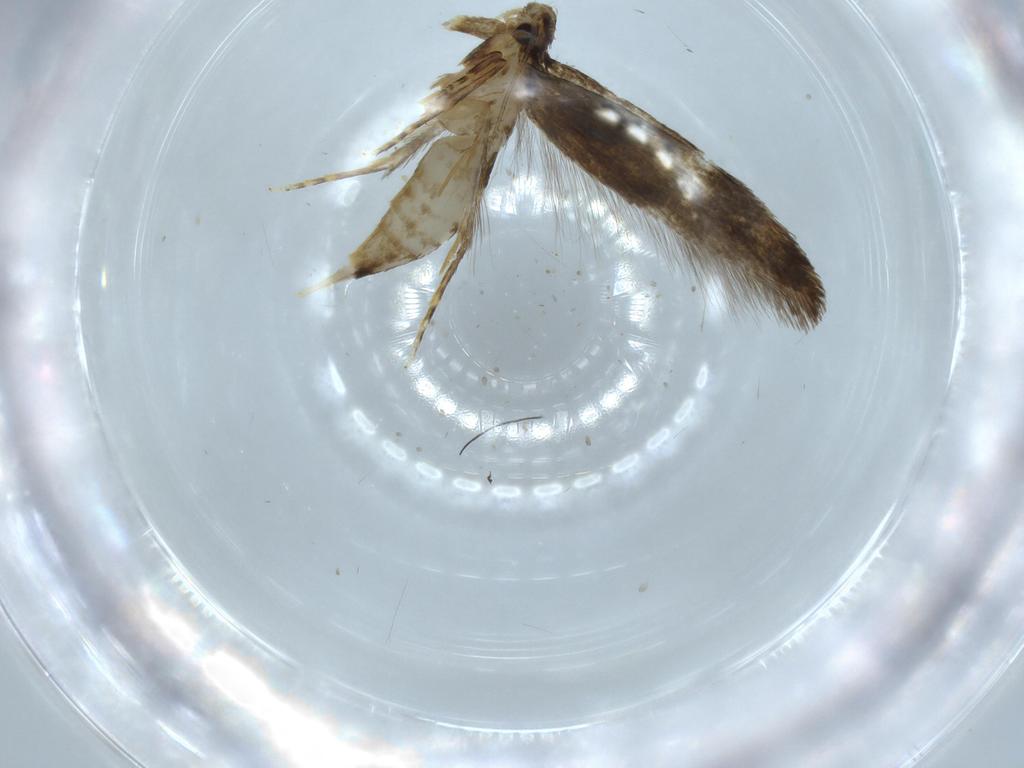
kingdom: Animalia
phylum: Arthropoda
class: Insecta
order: Lepidoptera
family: Tineidae
